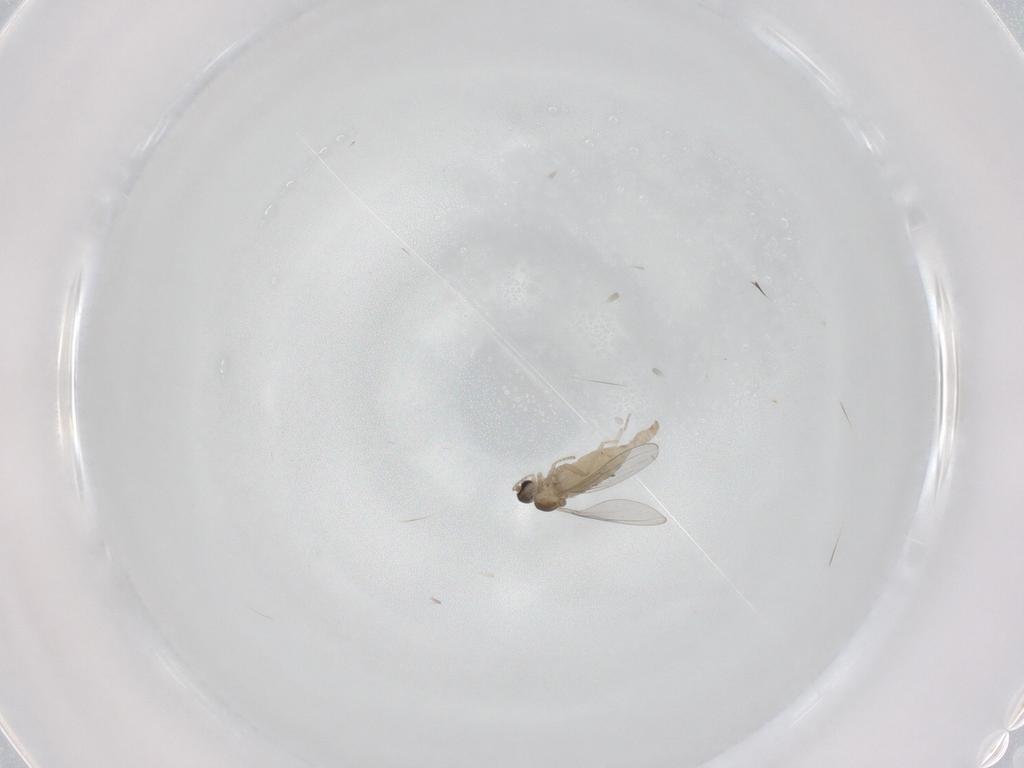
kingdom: Animalia
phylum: Arthropoda
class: Insecta
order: Diptera
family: Cecidomyiidae
